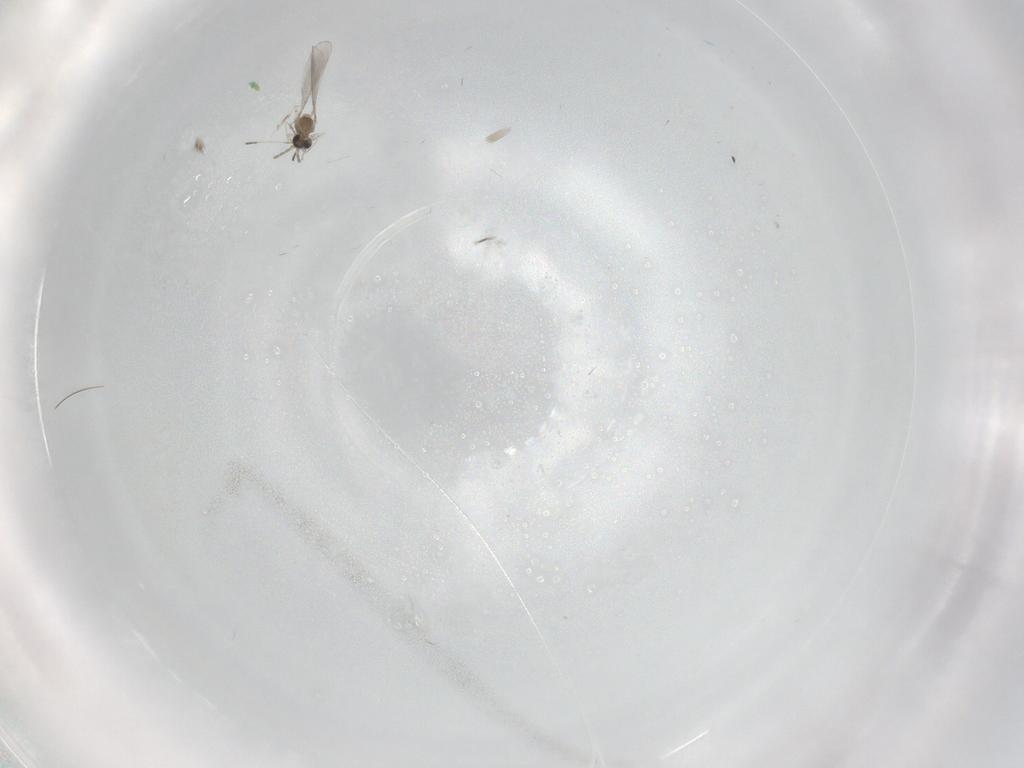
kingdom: Animalia
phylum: Arthropoda
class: Insecta
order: Diptera
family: Cecidomyiidae
